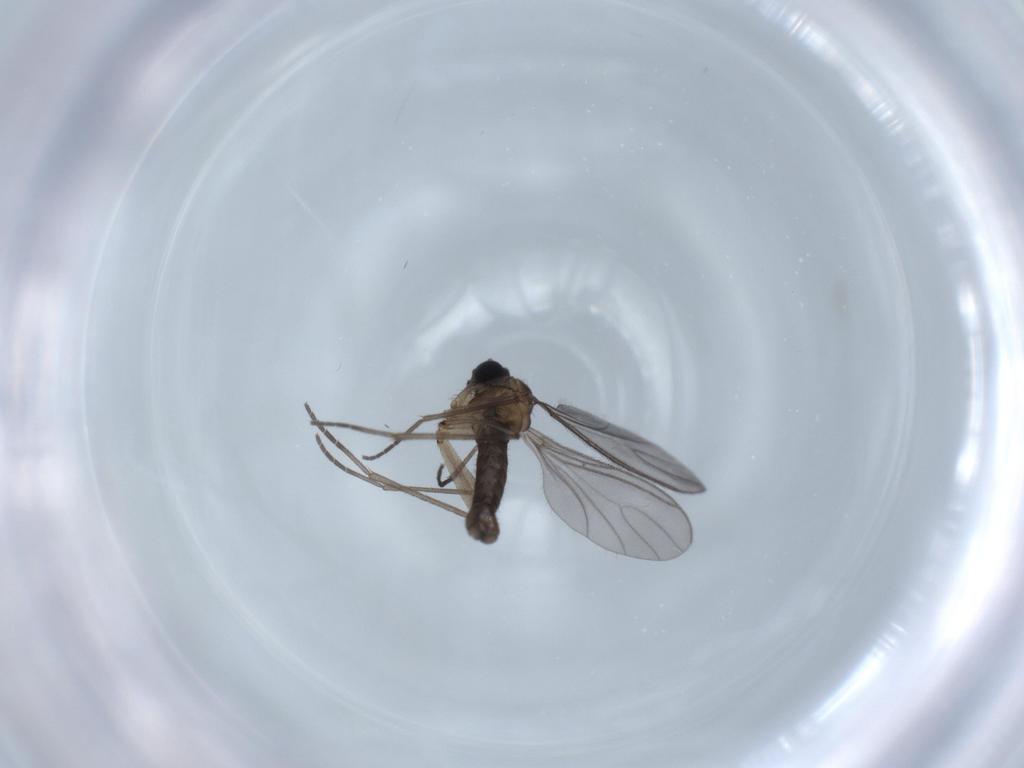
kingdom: Animalia
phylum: Arthropoda
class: Insecta
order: Diptera
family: Sciaridae
